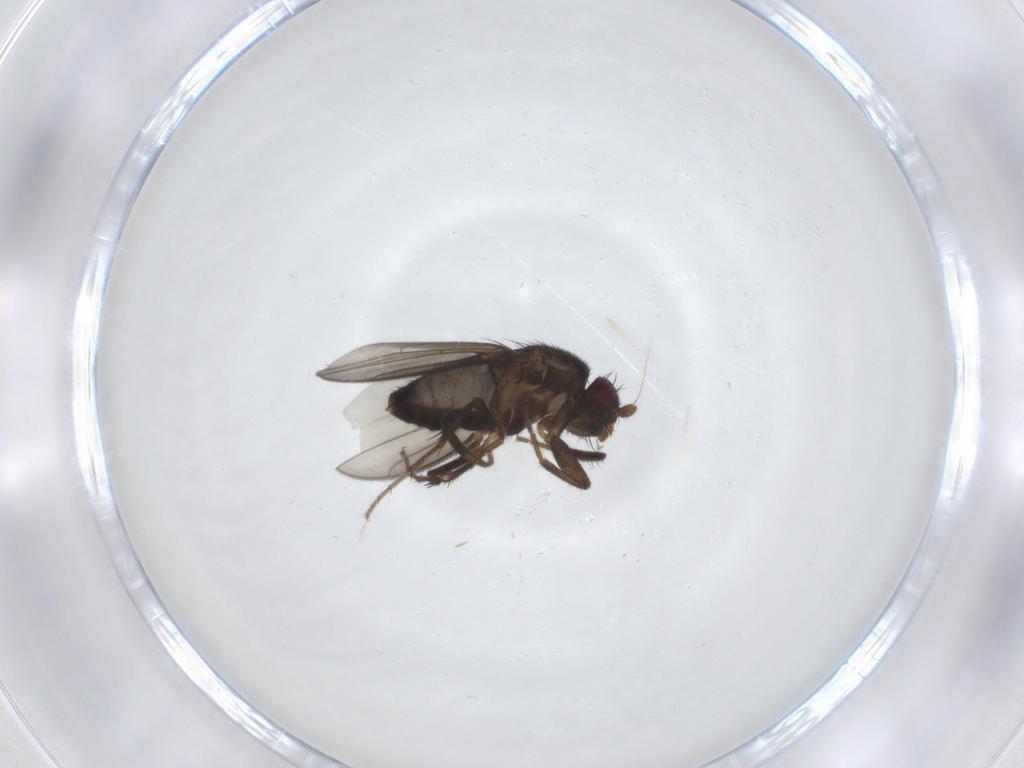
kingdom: Animalia
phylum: Arthropoda
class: Insecta
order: Diptera
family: Sphaeroceridae
